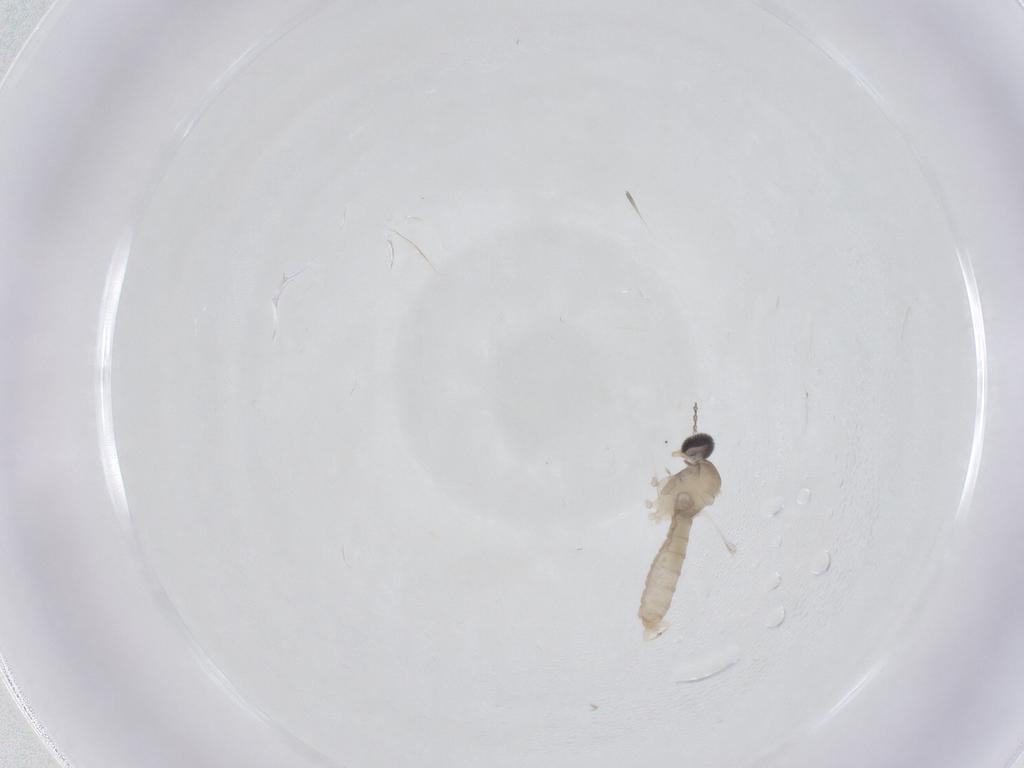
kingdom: Animalia
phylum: Arthropoda
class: Insecta
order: Diptera
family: Cecidomyiidae
